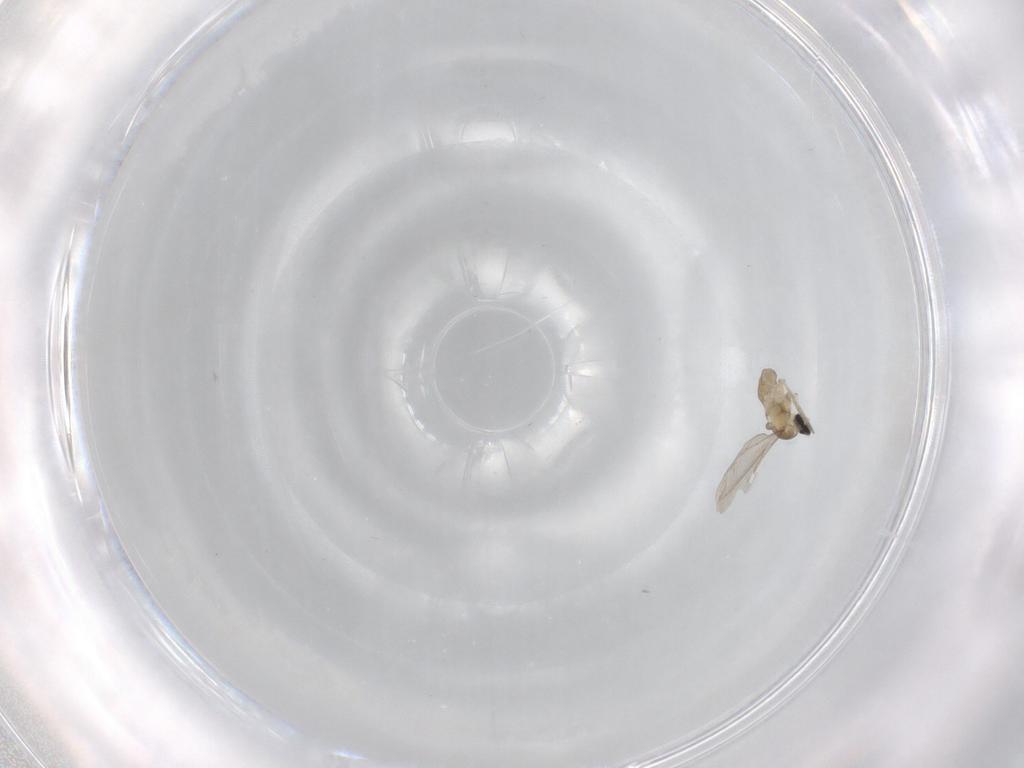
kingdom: Animalia
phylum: Arthropoda
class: Insecta
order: Diptera
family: Cecidomyiidae
